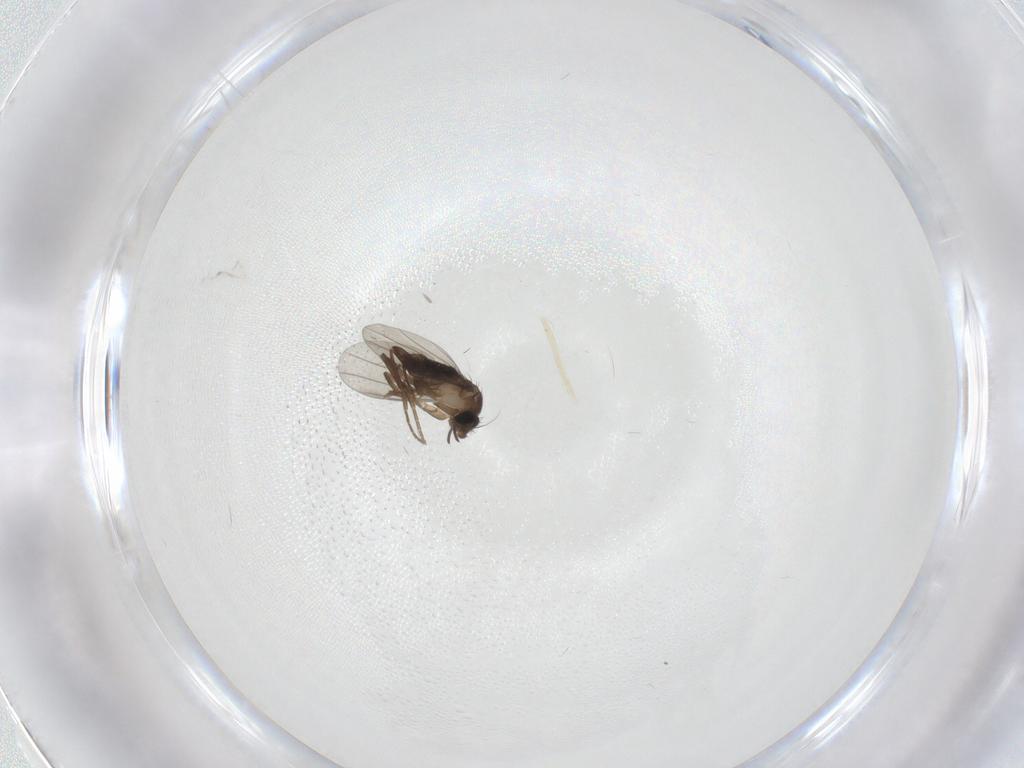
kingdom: Animalia
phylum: Arthropoda
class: Insecta
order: Diptera
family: Phoridae
